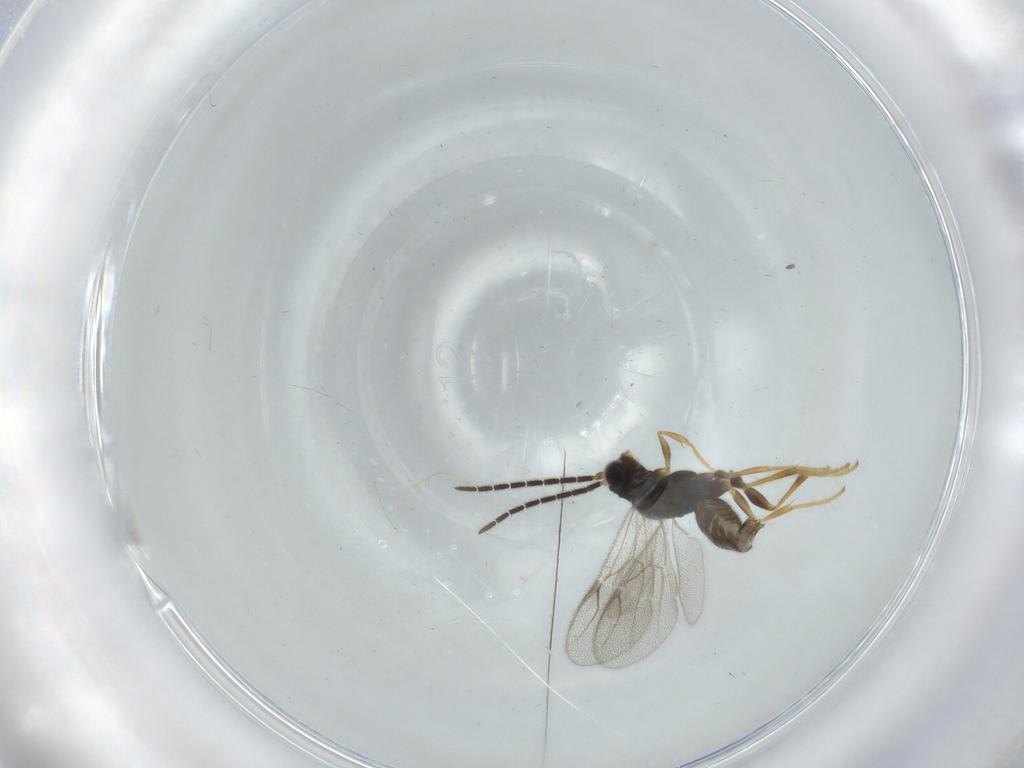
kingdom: Animalia
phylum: Arthropoda
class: Insecta
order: Hymenoptera
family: Dryinidae
